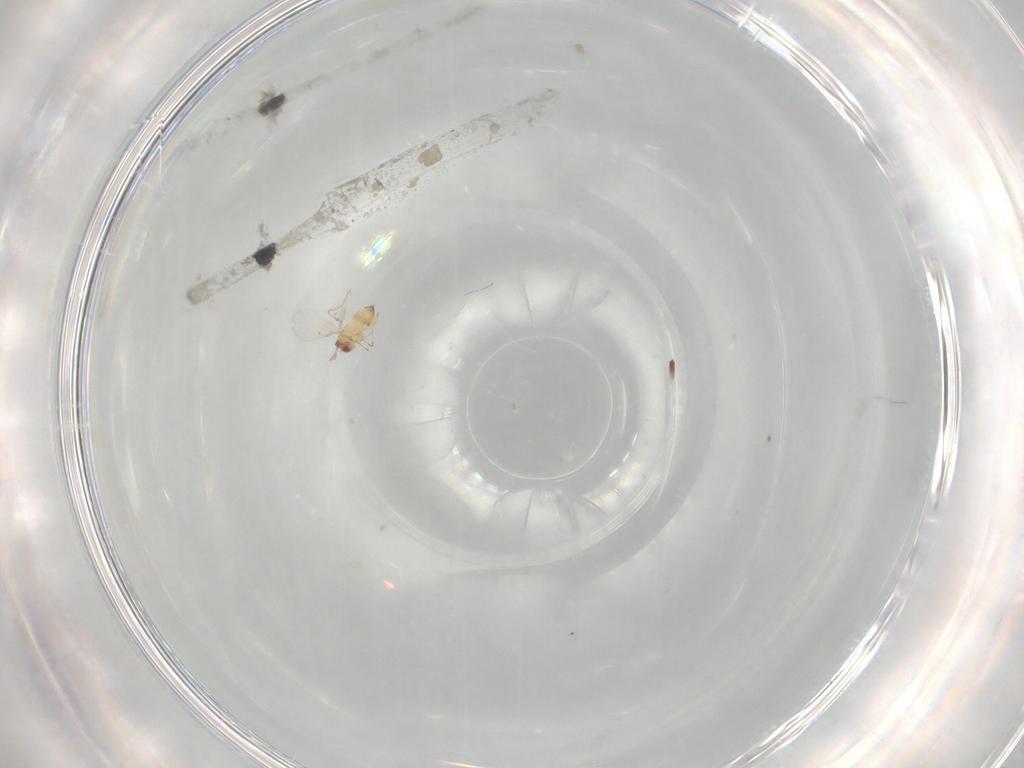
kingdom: Animalia
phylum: Arthropoda
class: Insecta
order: Hymenoptera
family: Trichogrammatidae
